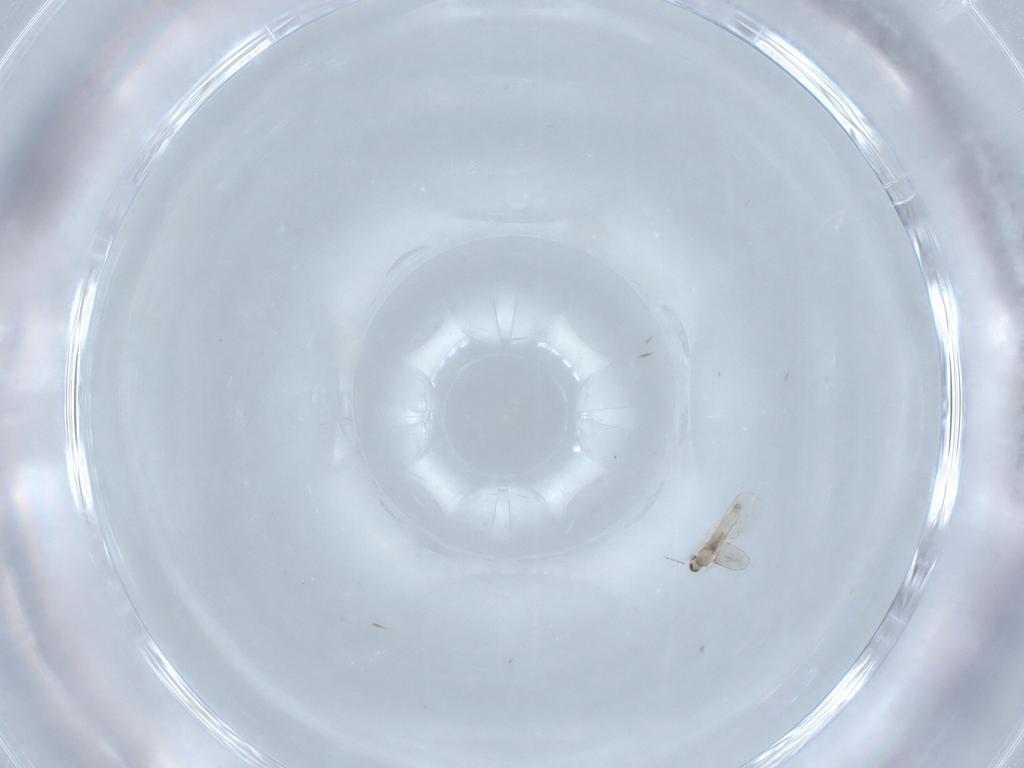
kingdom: Animalia
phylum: Arthropoda
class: Insecta
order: Diptera
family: Cecidomyiidae
